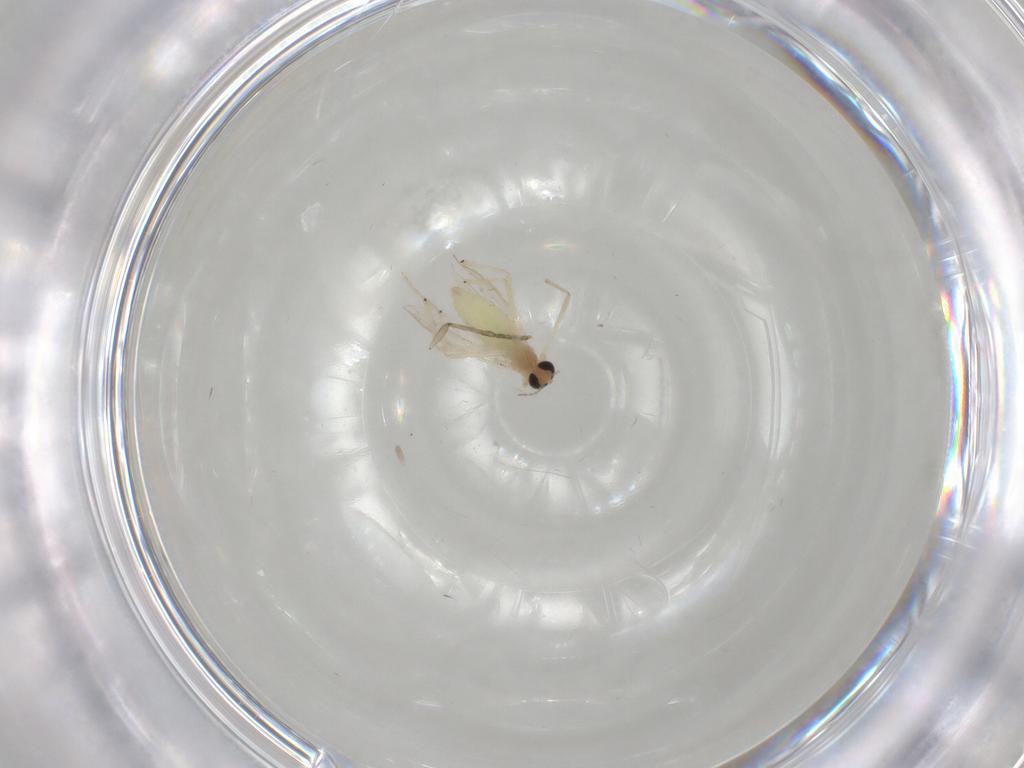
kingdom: Animalia
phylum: Arthropoda
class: Insecta
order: Diptera
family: Chironomidae
